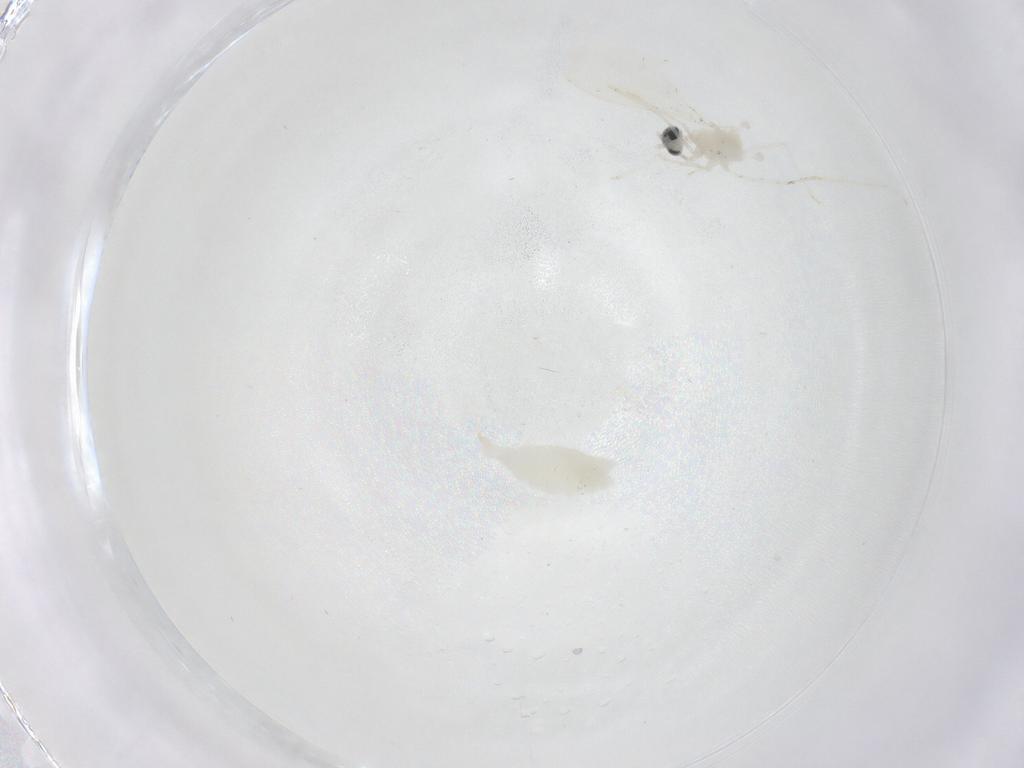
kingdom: Animalia
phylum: Arthropoda
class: Insecta
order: Diptera
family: Cecidomyiidae
